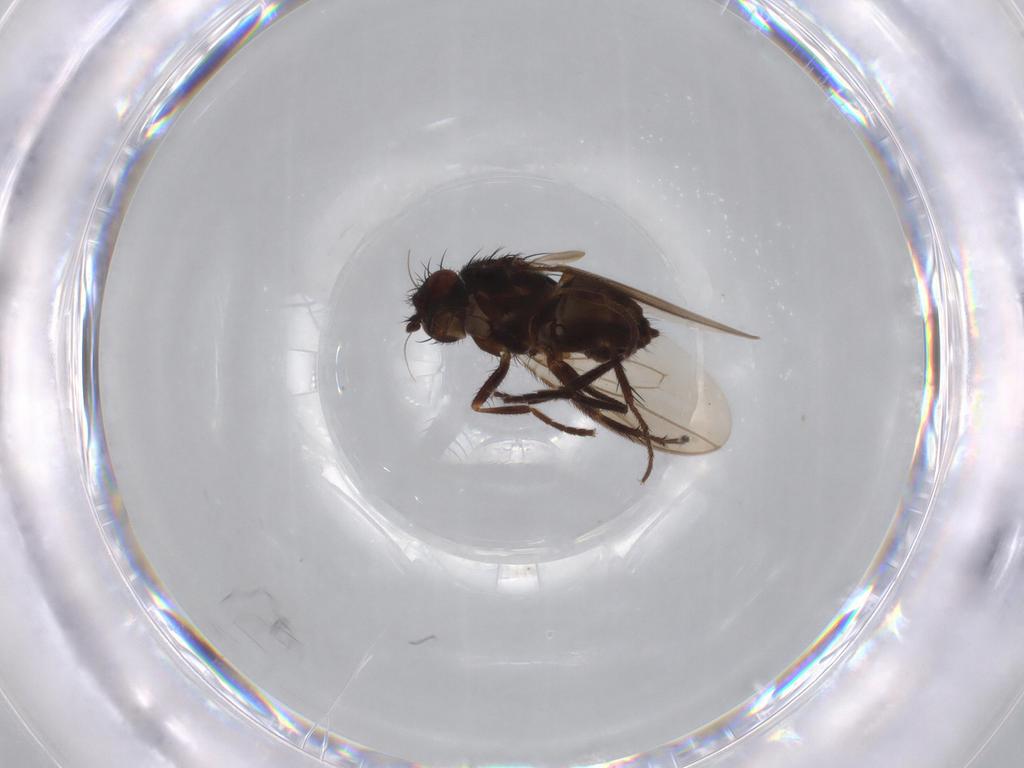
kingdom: Animalia
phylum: Arthropoda
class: Insecta
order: Diptera
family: Sphaeroceridae
